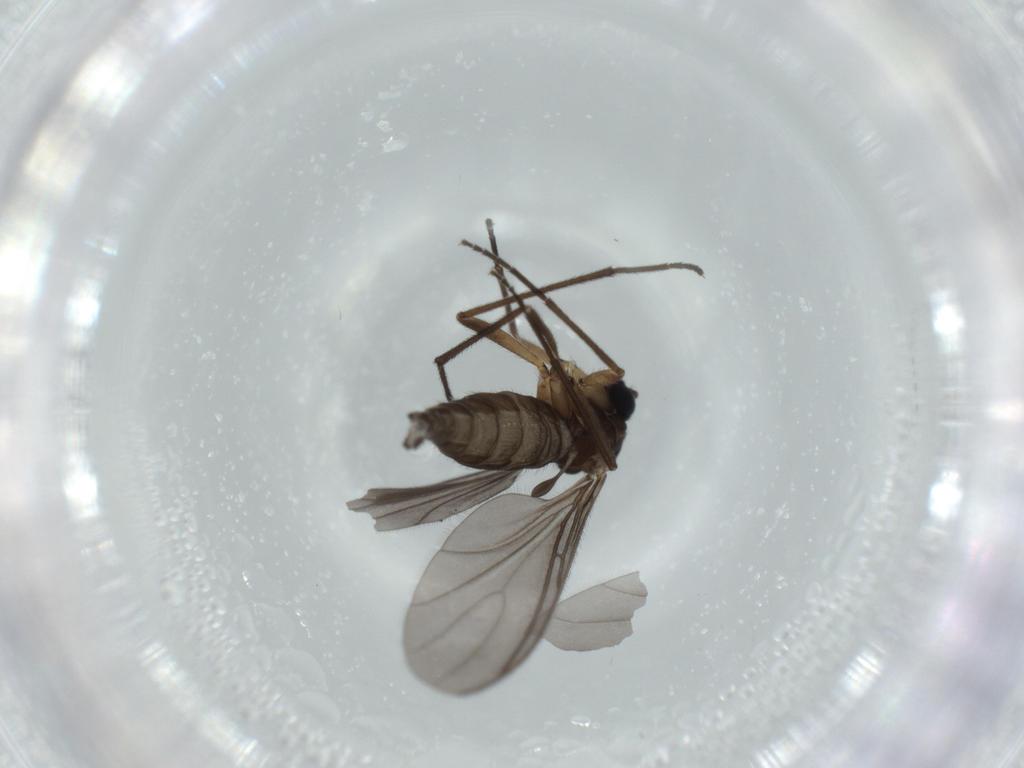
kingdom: Animalia
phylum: Arthropoda
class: Insecta
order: Diptera
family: Sciaridae
